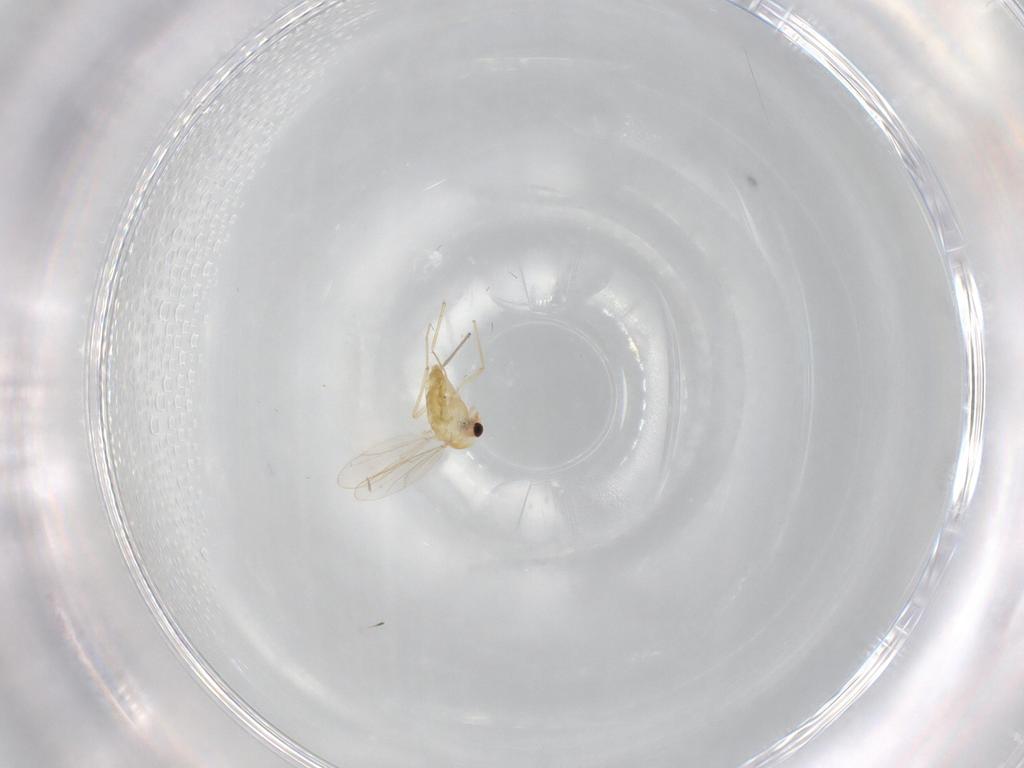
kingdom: Animalia
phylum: Arthropoda
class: Insecta
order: Diptera
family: Chironomidae
